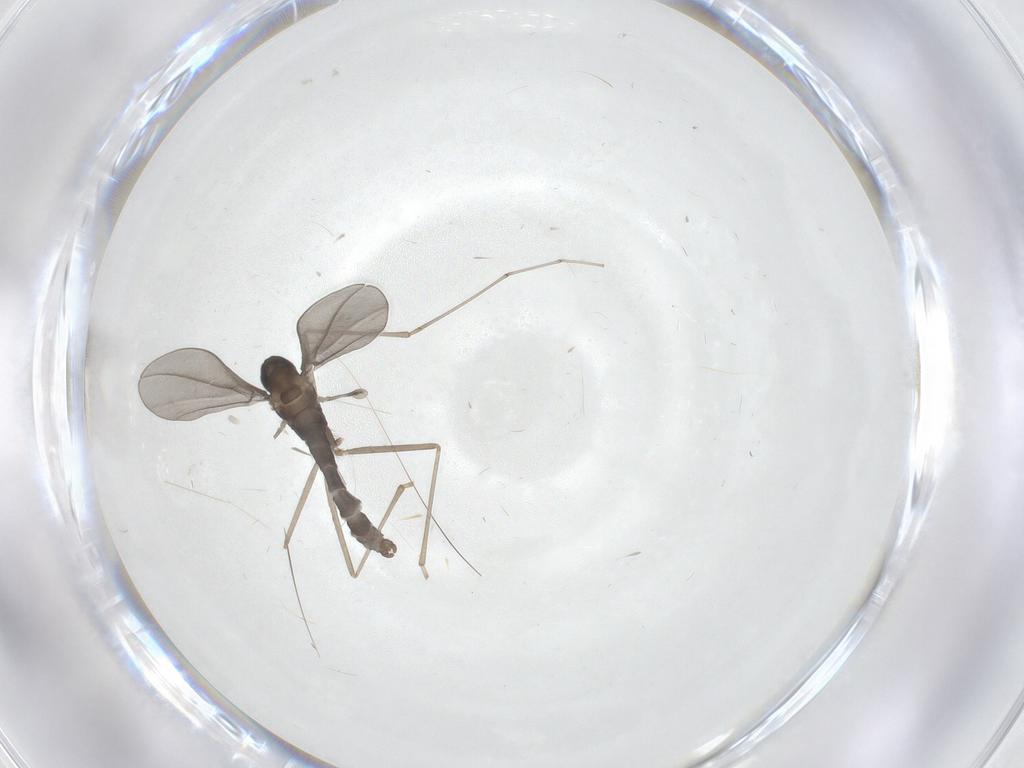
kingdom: Animalia
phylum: Arthropoda
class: Insecta
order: Diptera
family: Cecidomyiidae
